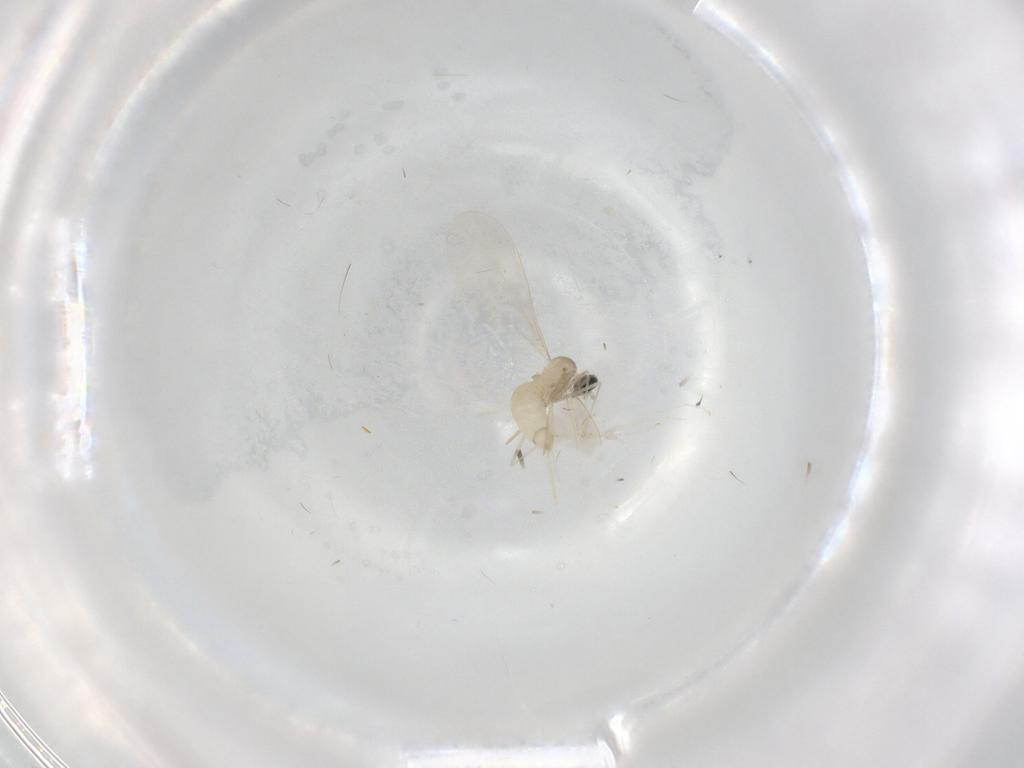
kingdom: Animalia
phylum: Arthropoda
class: Insecta
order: Diptera
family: Cecidomyiidae
